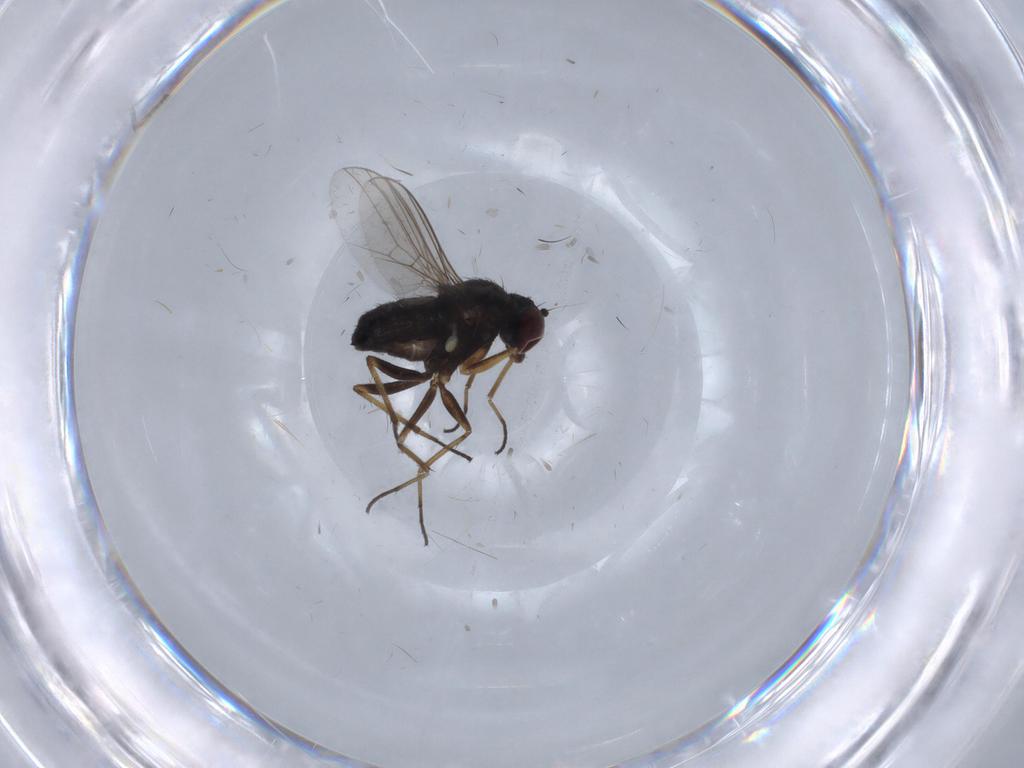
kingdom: Animalia
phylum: Arthropoda
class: Insecta
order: Diptera
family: Dolichopodidae
